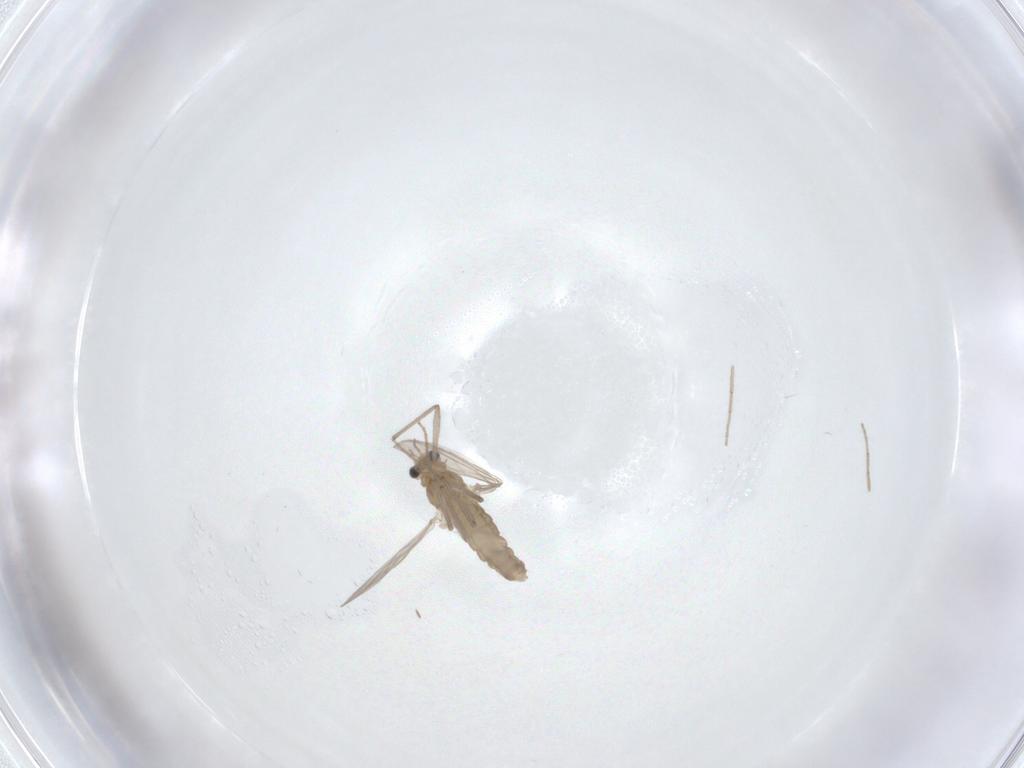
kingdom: Animalia
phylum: Arthropoda
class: Insecta
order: Diptera
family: Chironomidae
